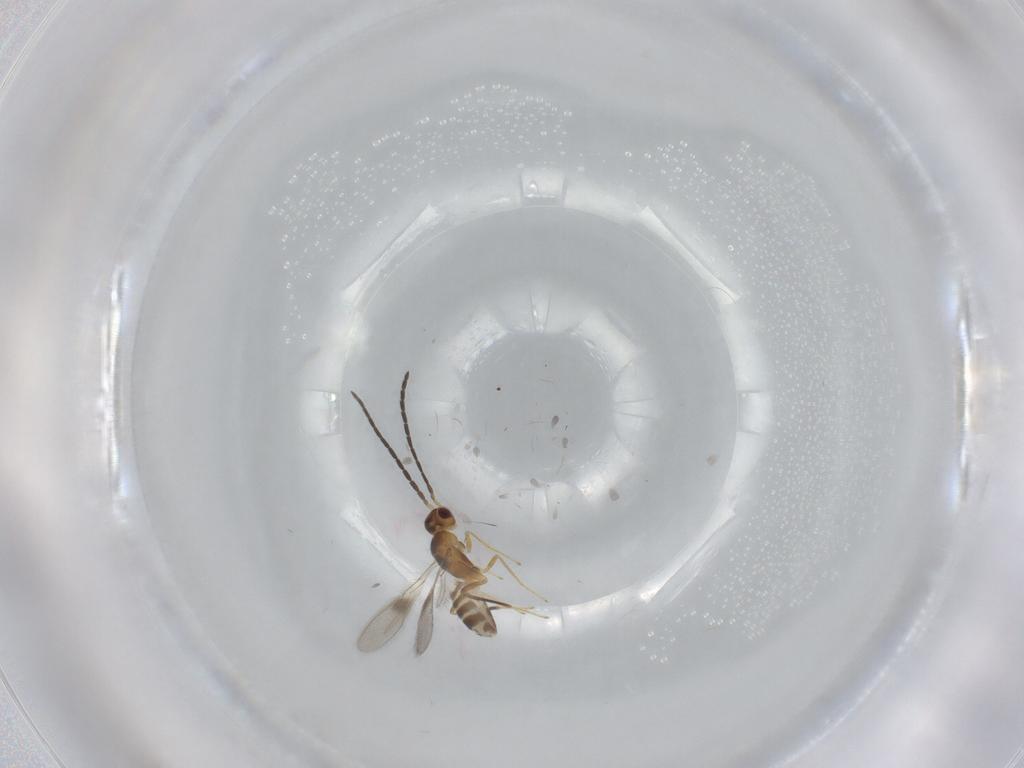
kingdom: Animalia
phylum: Arthropoda
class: Insecta
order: Hymenoptera
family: Mymaridae
